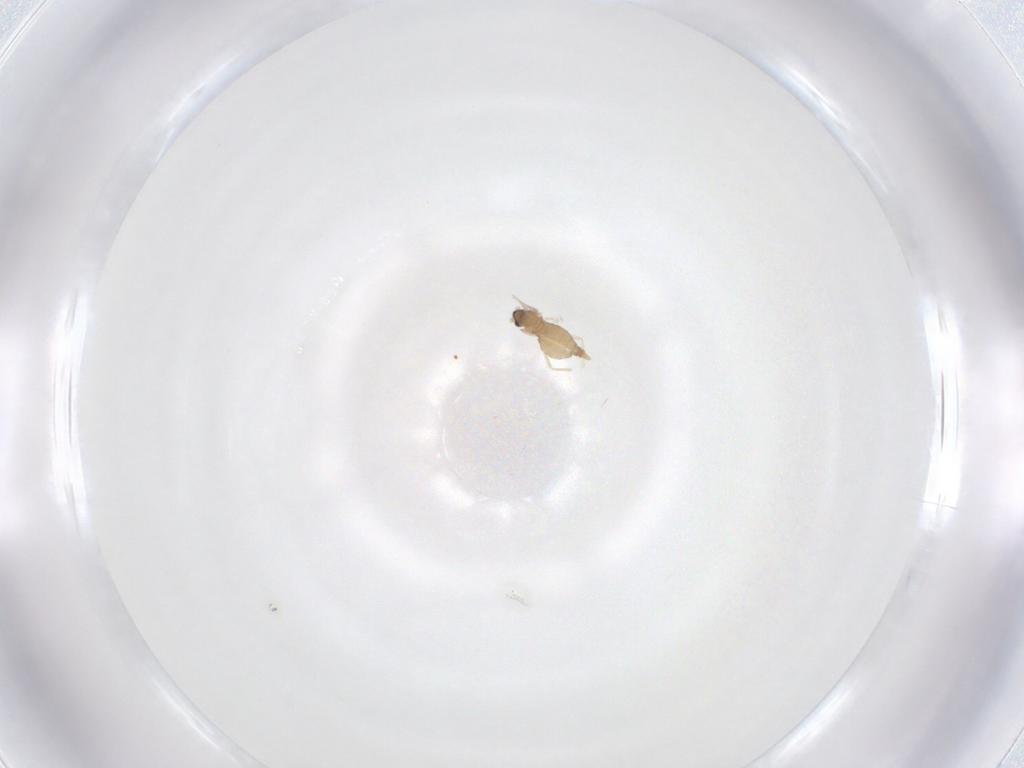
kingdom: Animalia
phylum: Arthropoda
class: Insecta
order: Diptera
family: Cecidomyiidae
